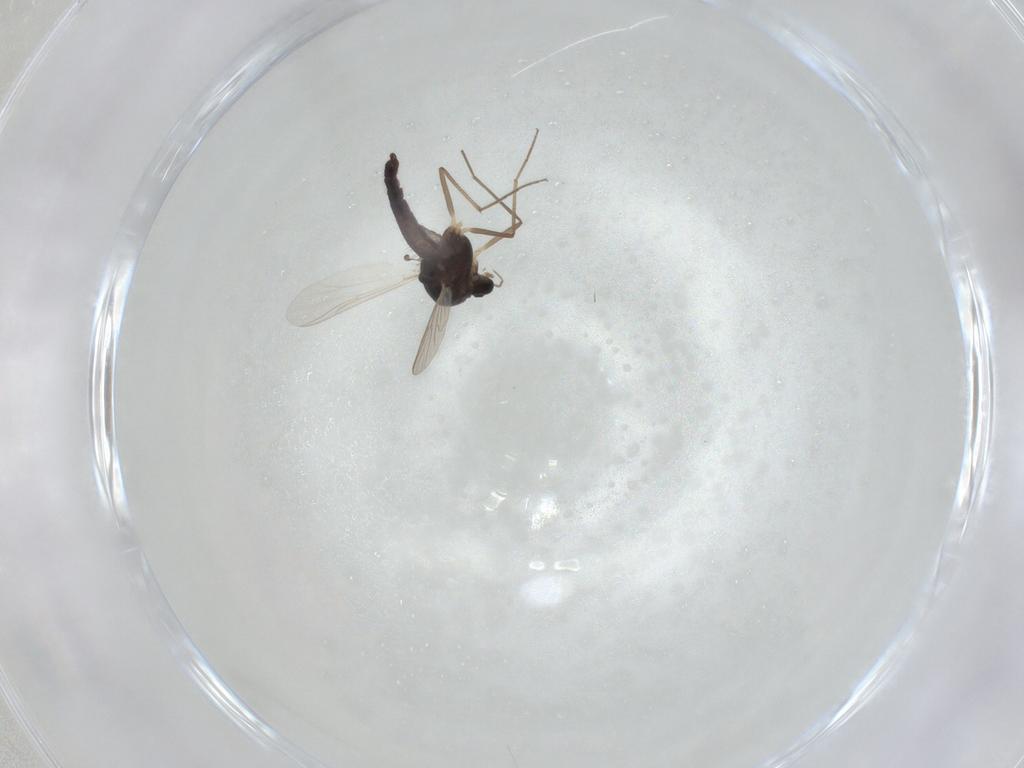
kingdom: Animalia
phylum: Arthropoda
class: Insecta
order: Diptera
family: Chironomidae
